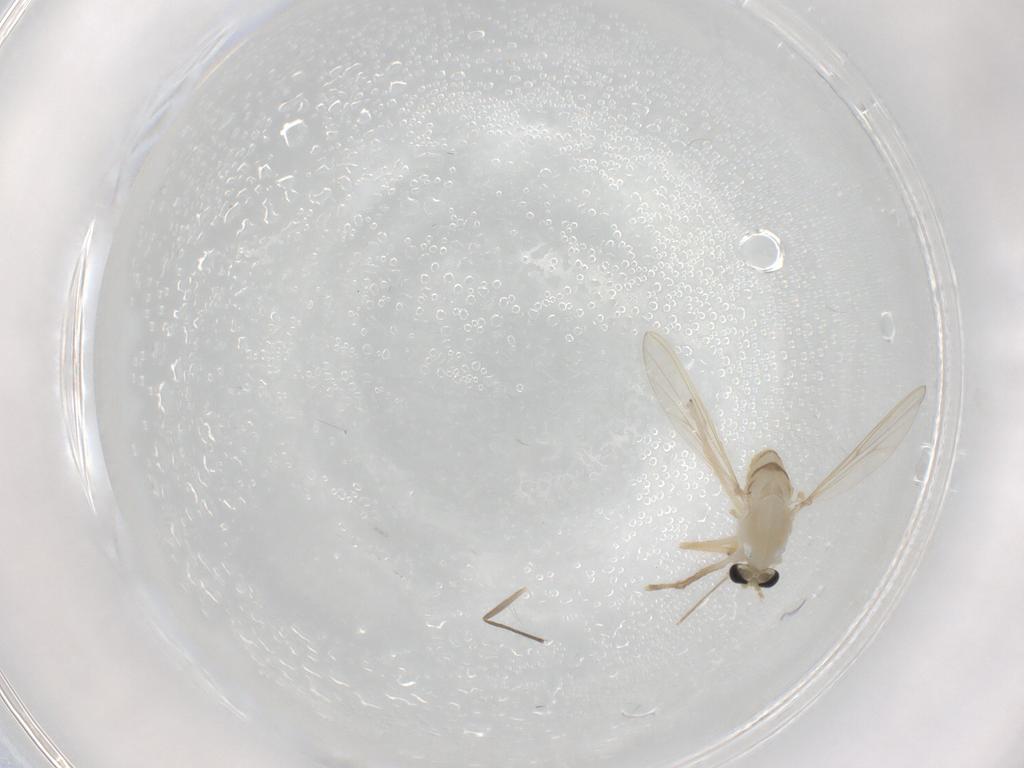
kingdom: Animalia
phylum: Arthropoda
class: Insecta
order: Diptera
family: Chironomidae
